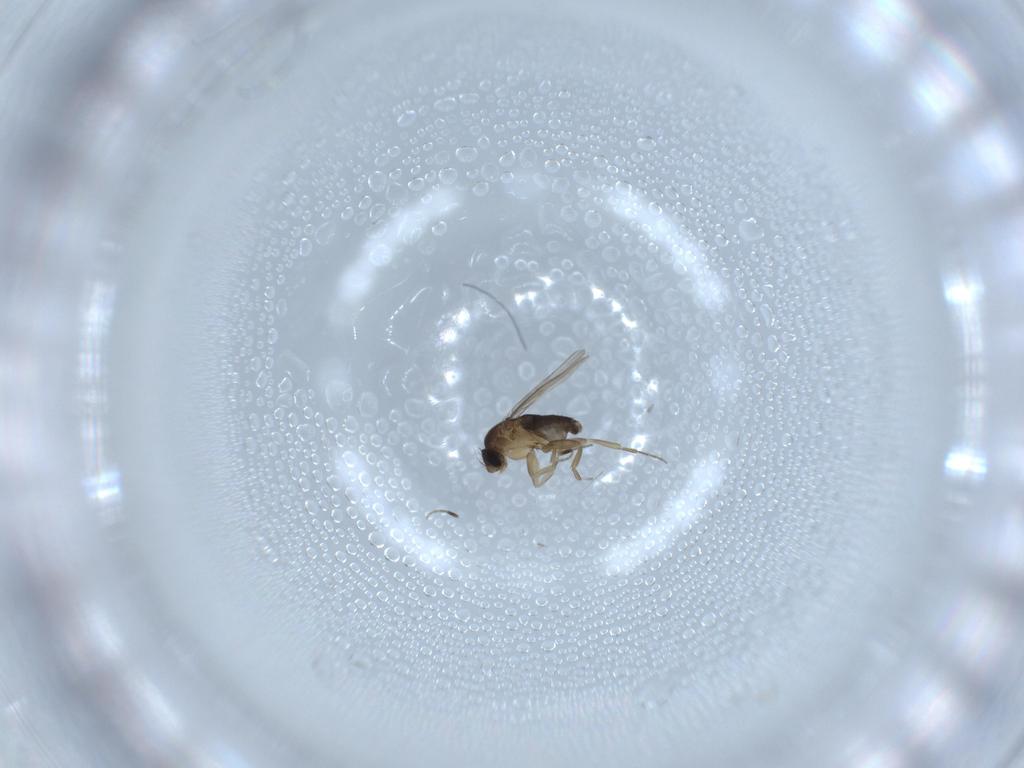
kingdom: Animalia
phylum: Arthropoda
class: Insecta
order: Diptera
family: Phoridae
